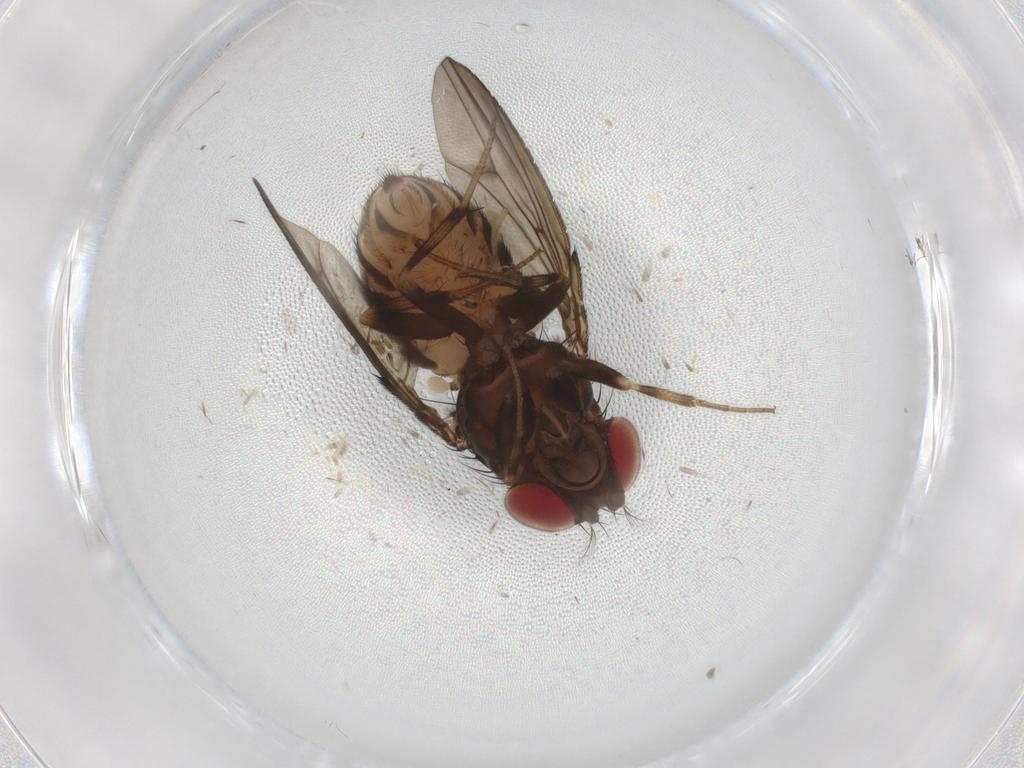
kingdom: Animalia
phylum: Arthropoda
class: Insecta
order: Diptera
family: Drosophilidae
